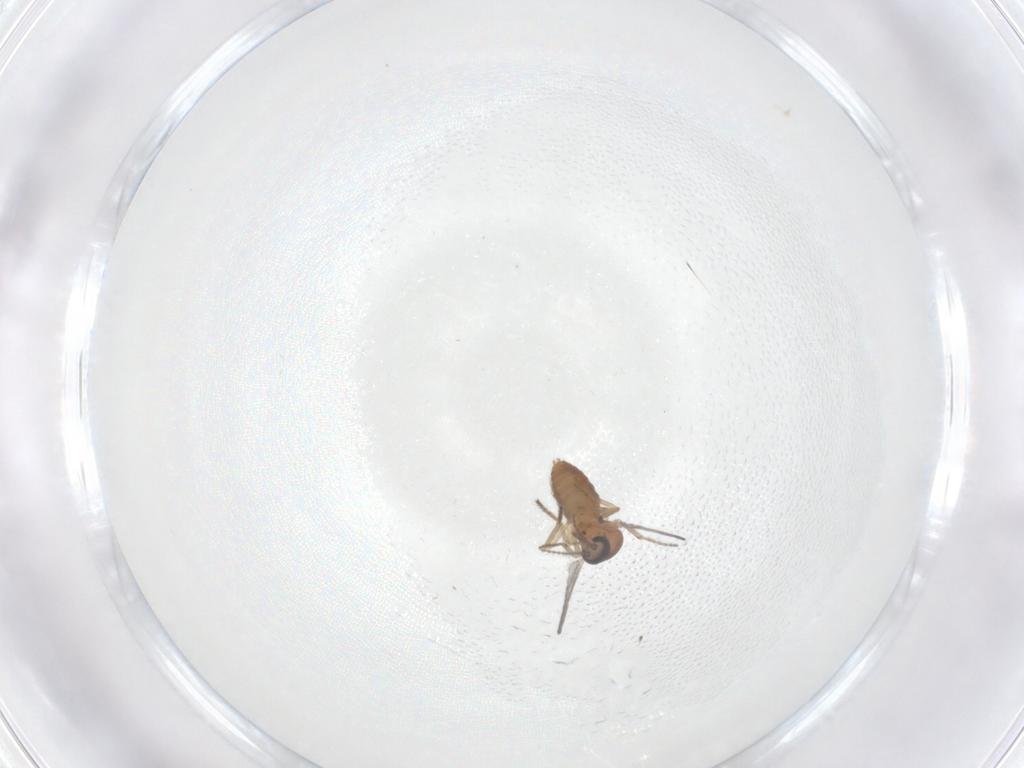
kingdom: Animalia
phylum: Arthropoda
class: Insecta
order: Diptera
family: Ceratopogonidae
